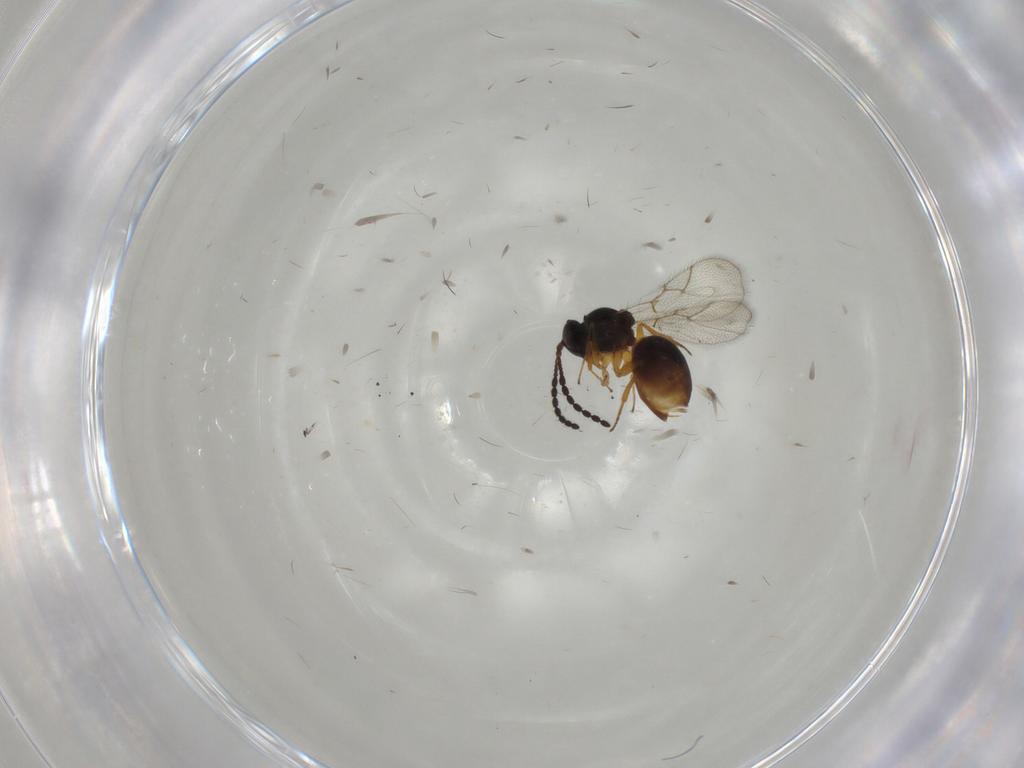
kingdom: Animalia
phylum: Arthropoda
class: Insecta
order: Hymenoptera
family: Figitidae
